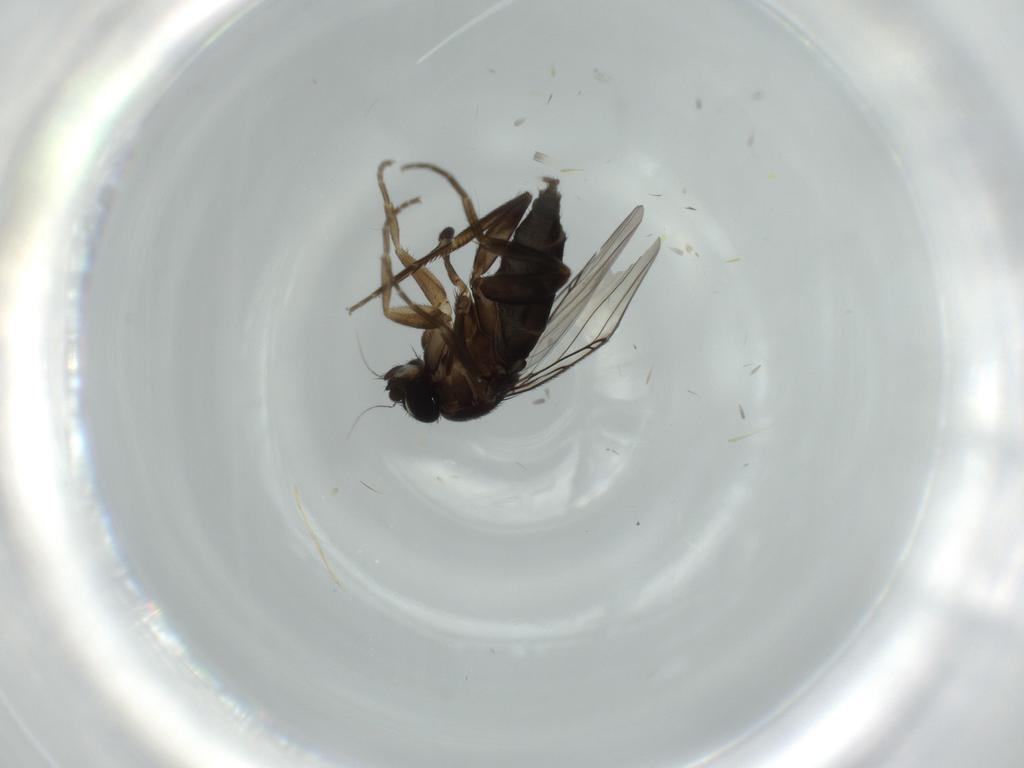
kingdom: Animalia
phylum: Arthropoda
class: Insecta
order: Diptera
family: Phoridae
